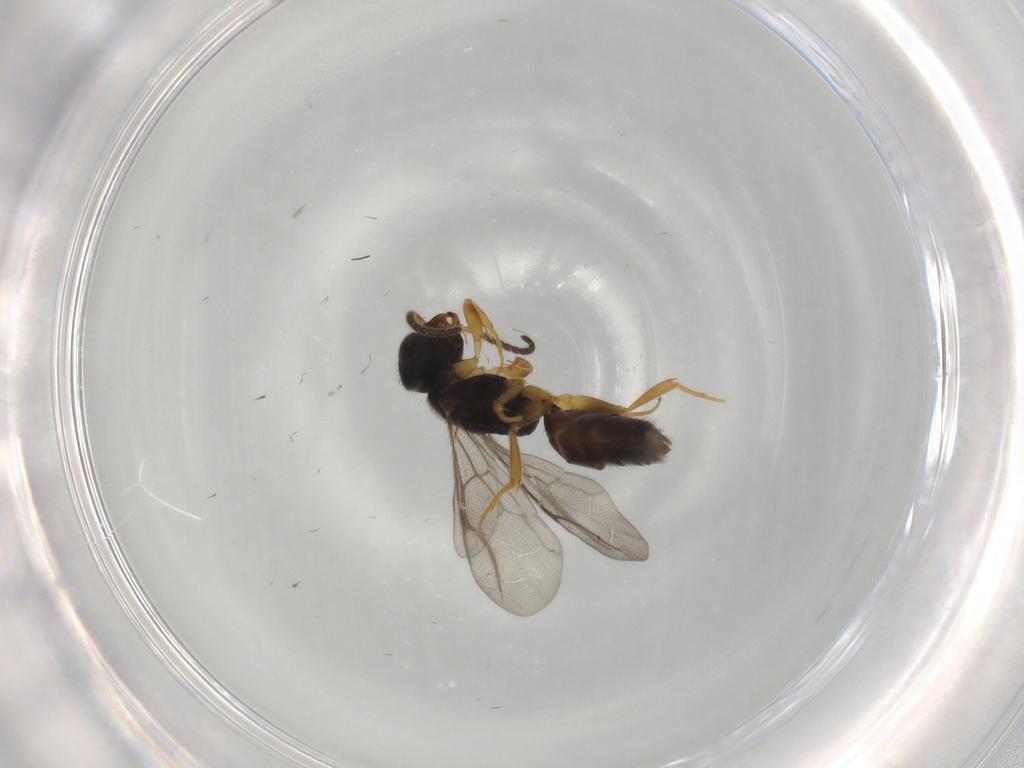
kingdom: Animalia
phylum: Arthropoda
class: Insecta
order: Hymenoptera
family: Bethylidae
